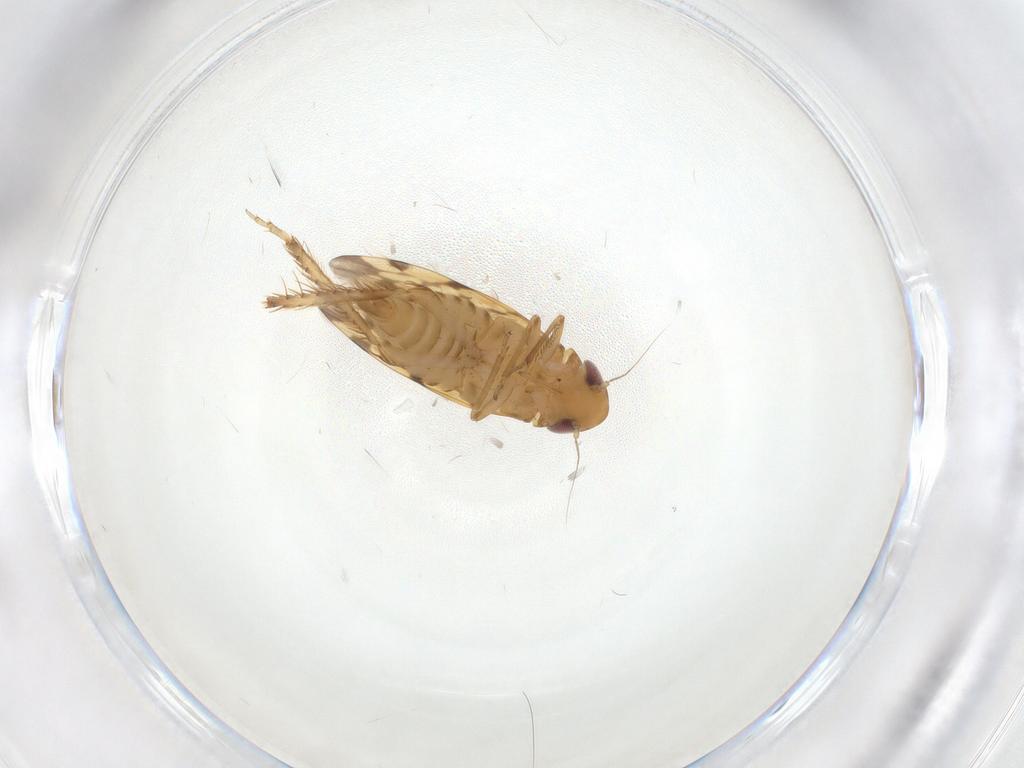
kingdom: Animalia
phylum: Arthropoda
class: Insecta
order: Hemiptera
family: Cicadellidae
